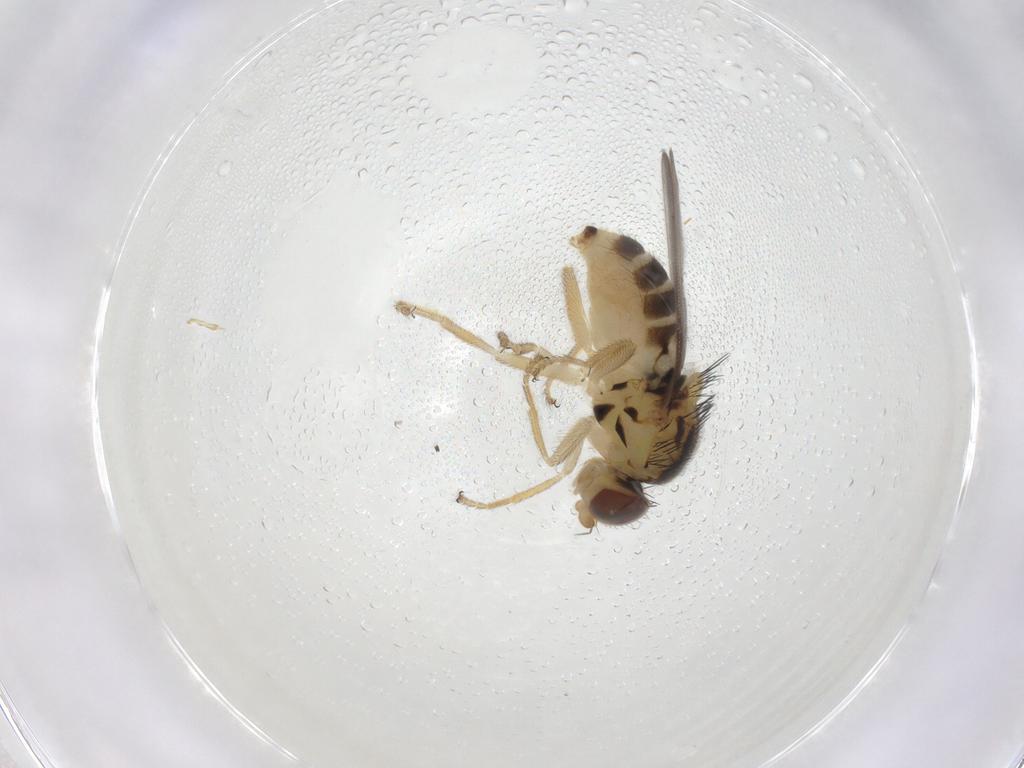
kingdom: Animalia
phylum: Arthropoda
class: Insecta
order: Diptera
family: Chloropidae
